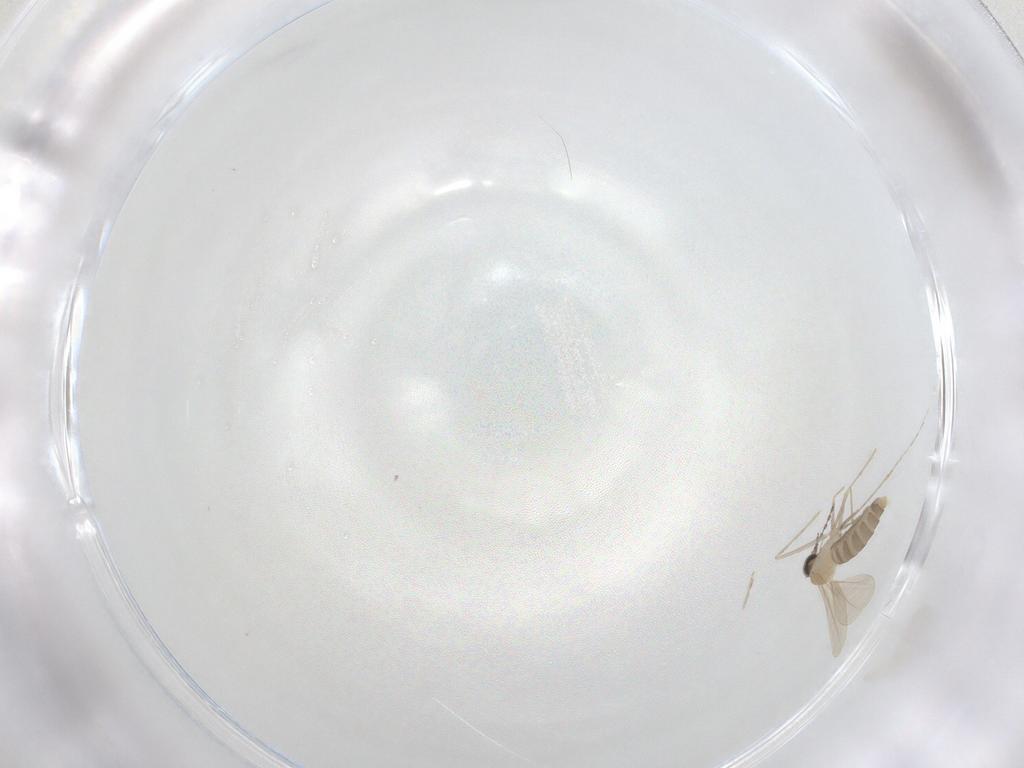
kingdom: Animalia
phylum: Arthropoda
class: Insecta
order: Diptera
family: Cecidomyiidae
